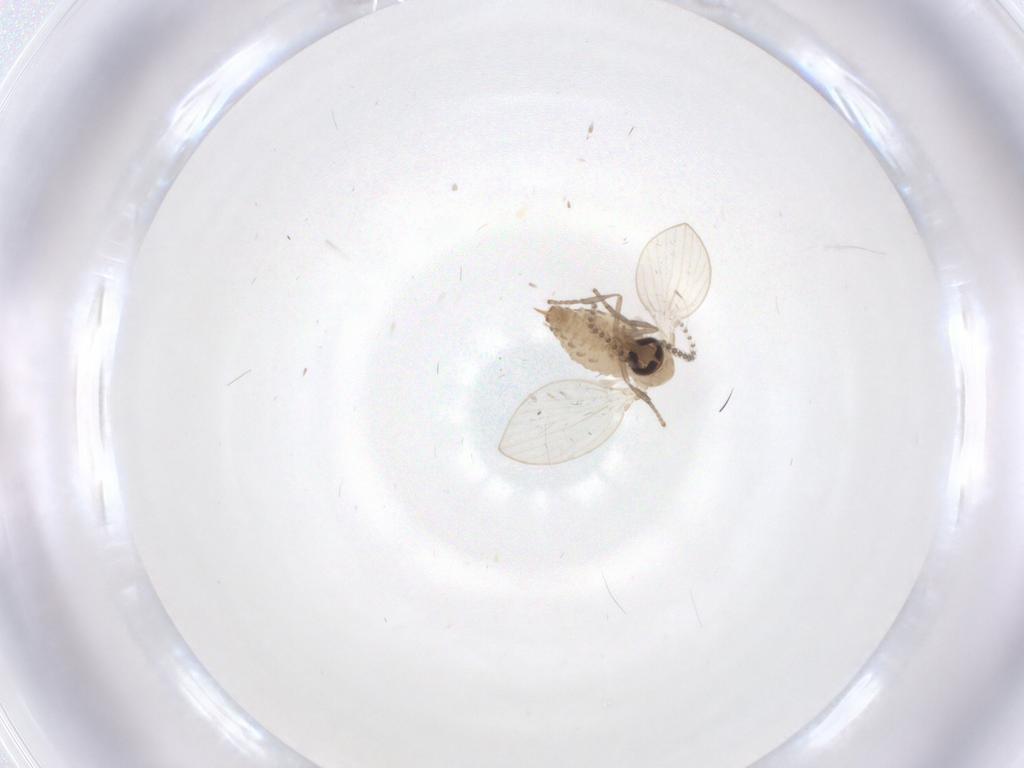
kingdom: Animalia
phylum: Arthropoda
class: Insecta
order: Diptera
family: Psychodidae
